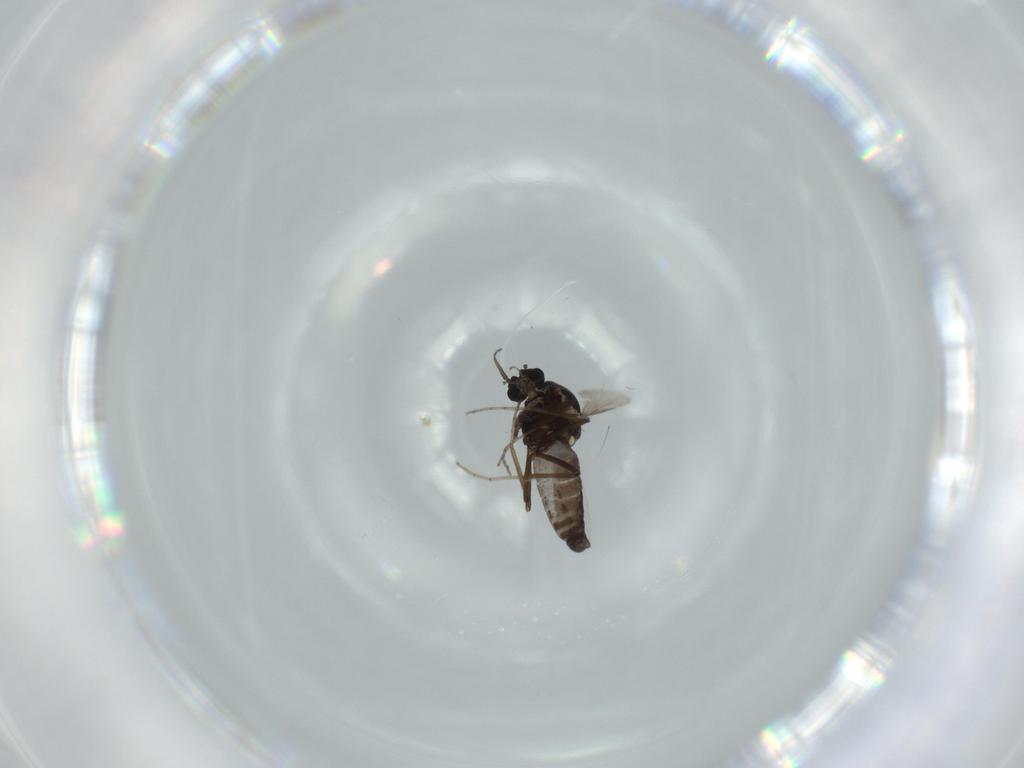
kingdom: Animalia
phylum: Arthropoda
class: Insecta
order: Diptera
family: Ceratopogonidae
